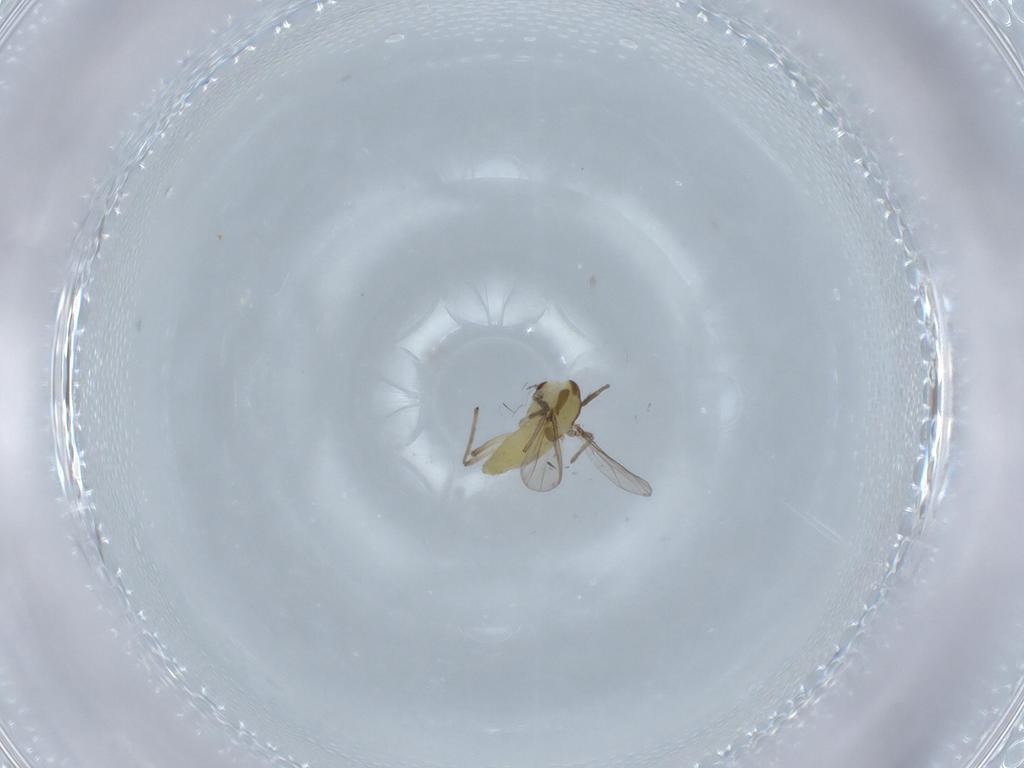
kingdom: Animalia
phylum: Arthropoda
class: Insecta
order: Diptera
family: Chironomidae
